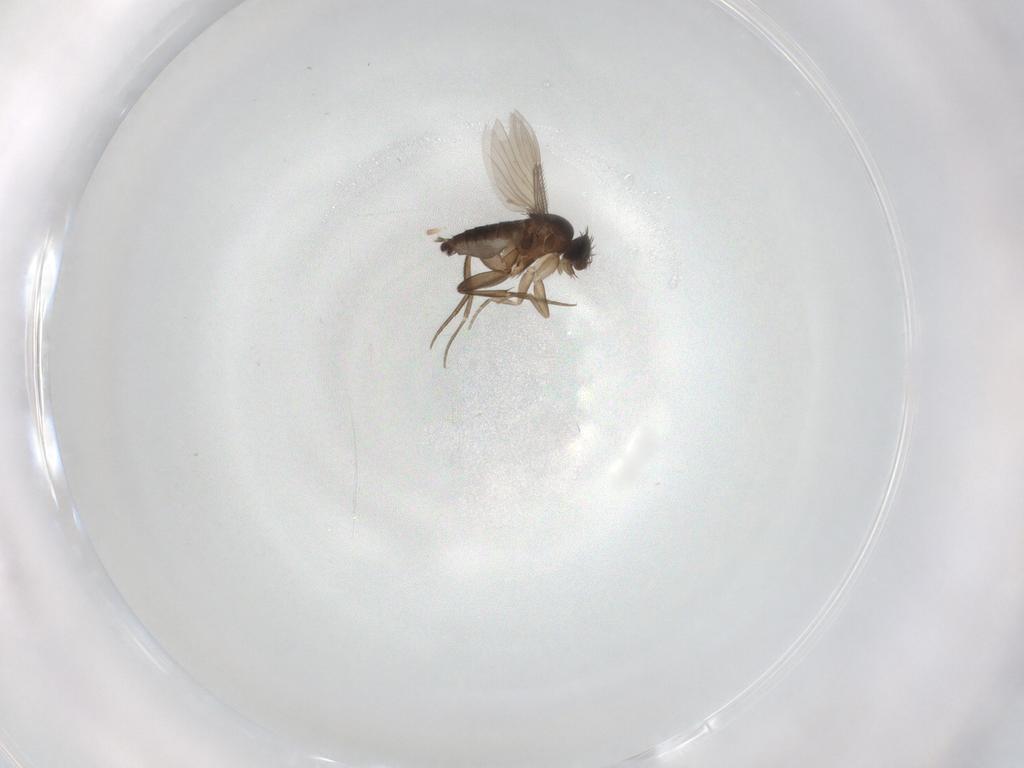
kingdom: Animalia
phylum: Arthropoda
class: Insecta
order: Diptera
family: Phoridae
